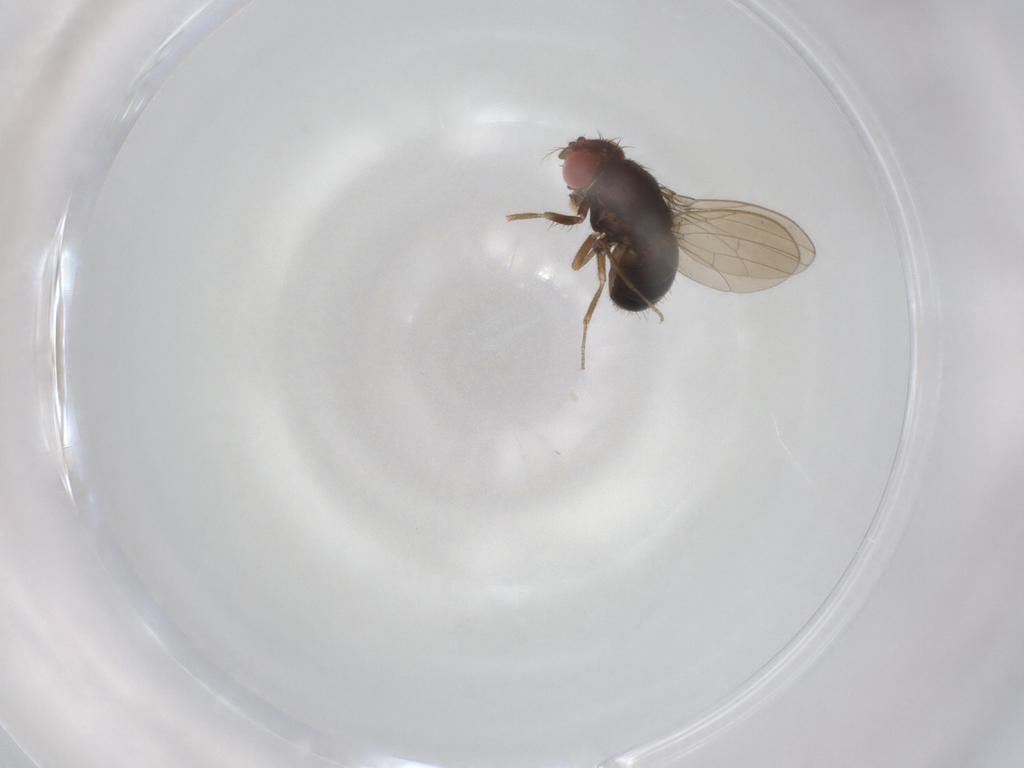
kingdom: Animalia
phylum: Arthropoda
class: Insecta
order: Diptera
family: Drosophilidae
